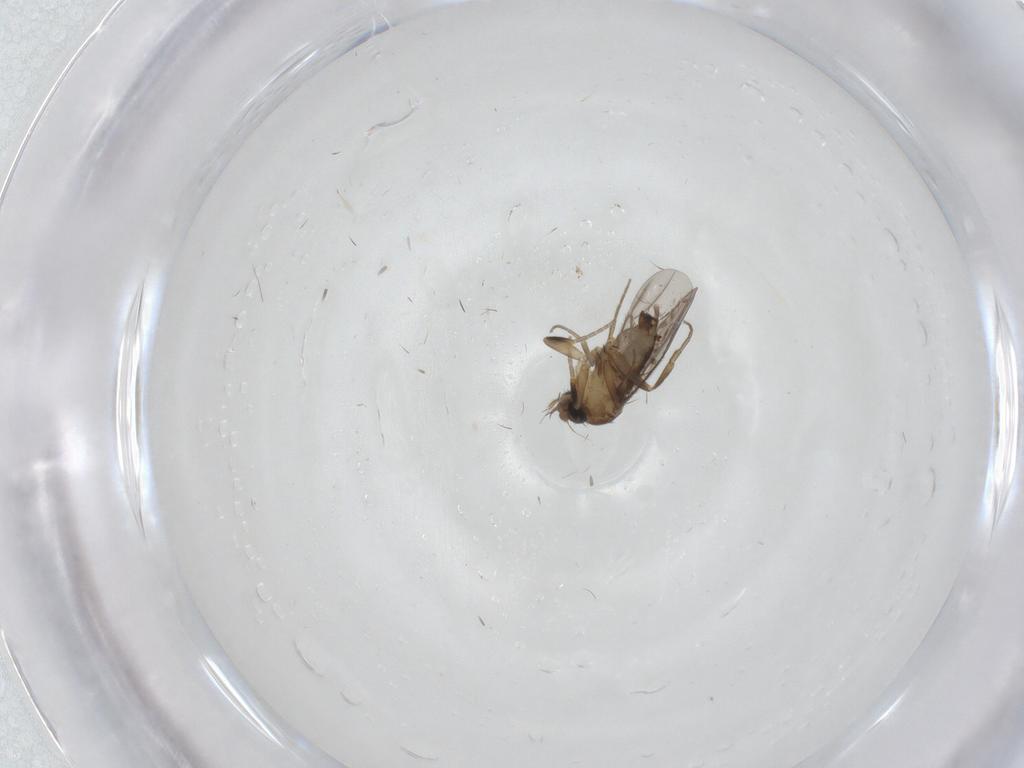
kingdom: Animalia
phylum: Arthropoda
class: Insecta
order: Diptera
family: Phoridae
